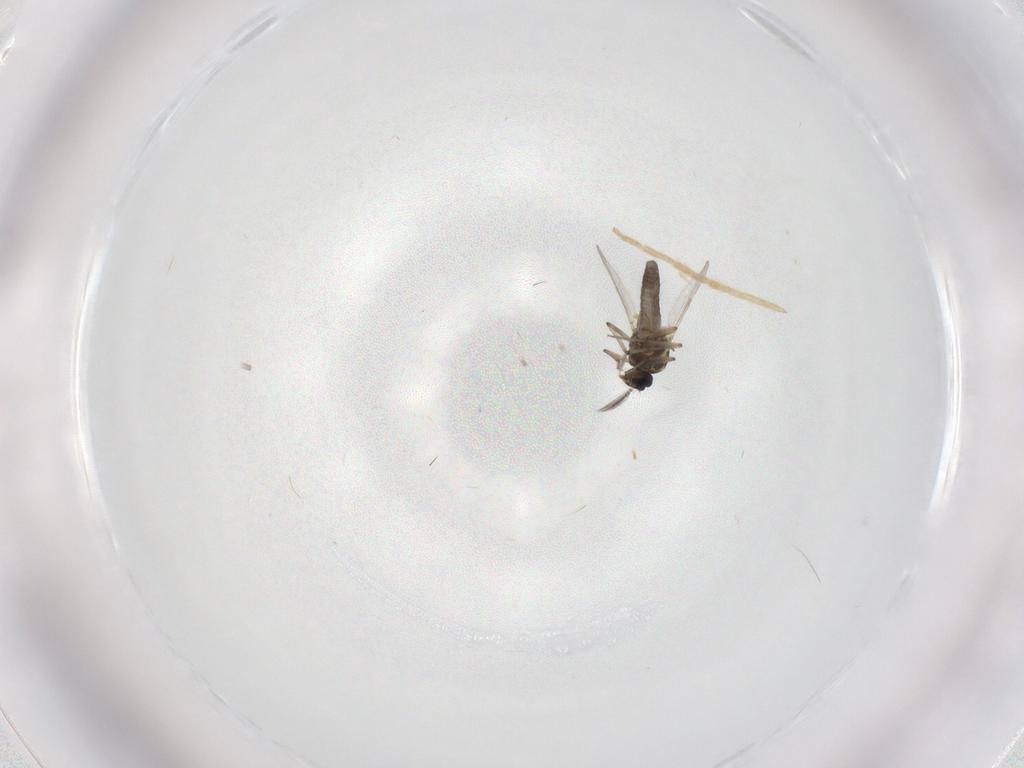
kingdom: Animalia
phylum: Arthropoda
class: Insecta
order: Diptera
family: Ceratopogonidae
